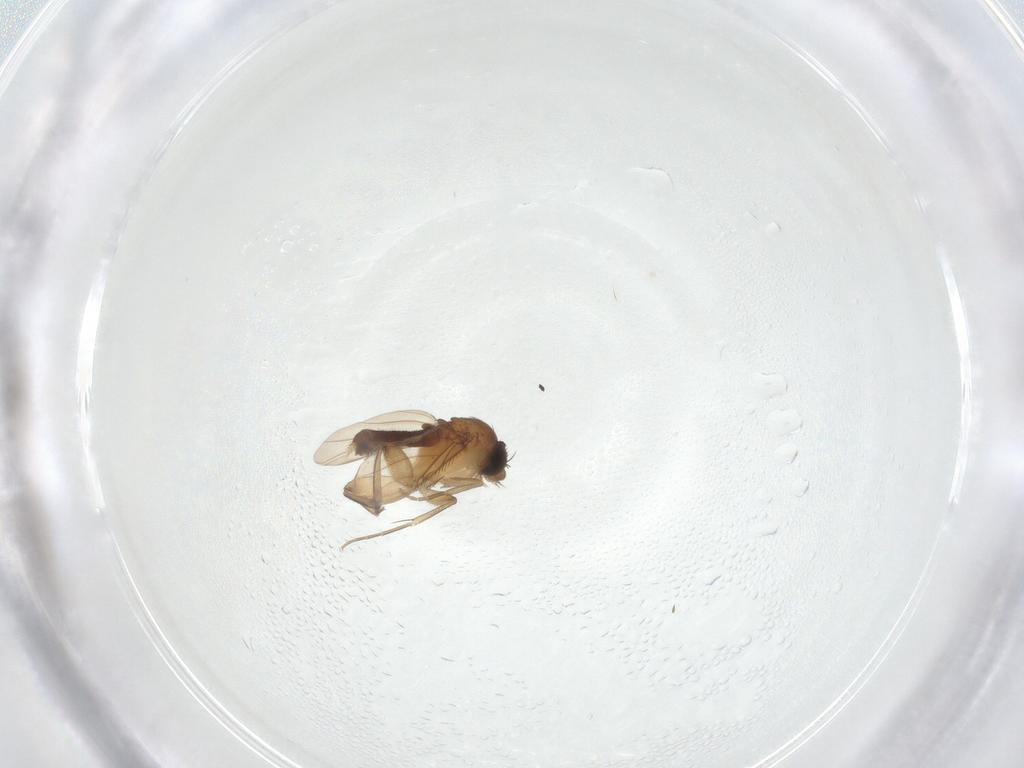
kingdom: Animalia
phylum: Arthropoda
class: Insecta
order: Diptera
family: Phoridae
